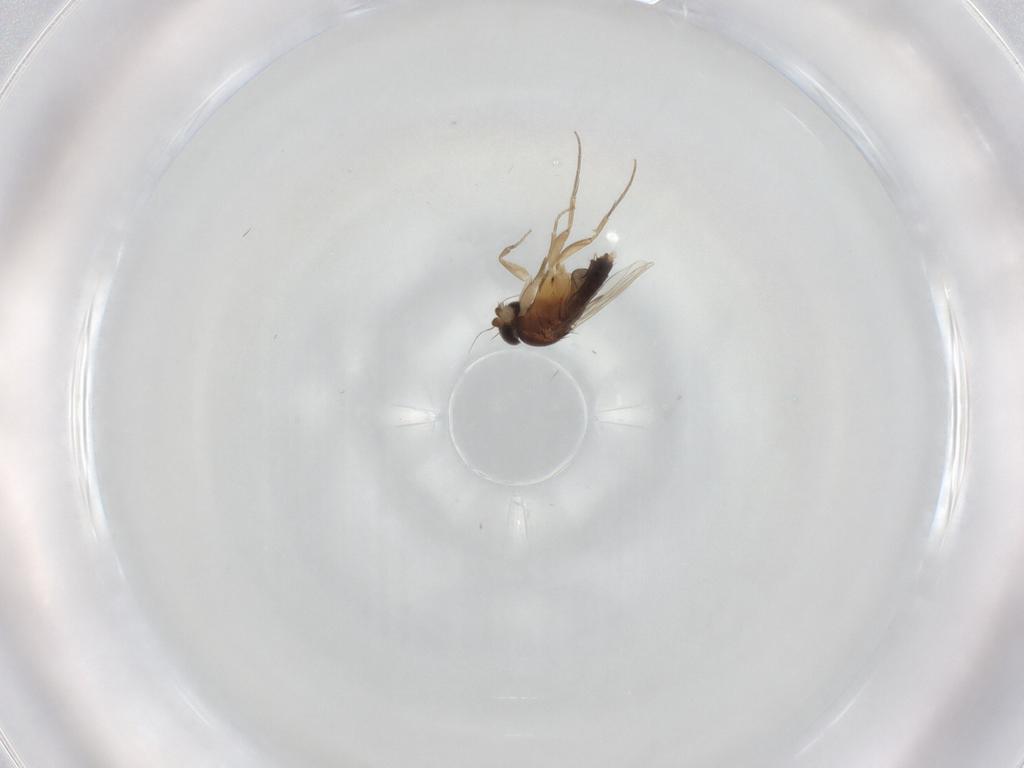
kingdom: Animalia
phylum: Arthropoda
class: Insecta
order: Diptera
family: Phoridae
